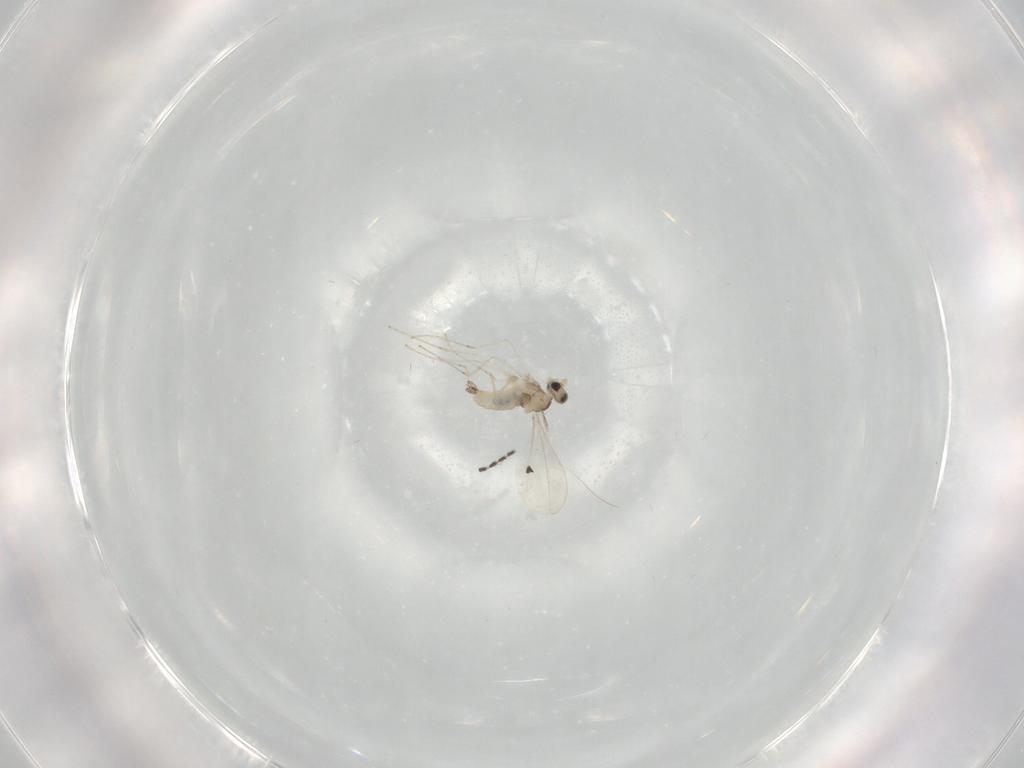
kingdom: Animalia
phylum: Arthropoda
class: Insecta
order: Diptera
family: Cecidomyiidae
